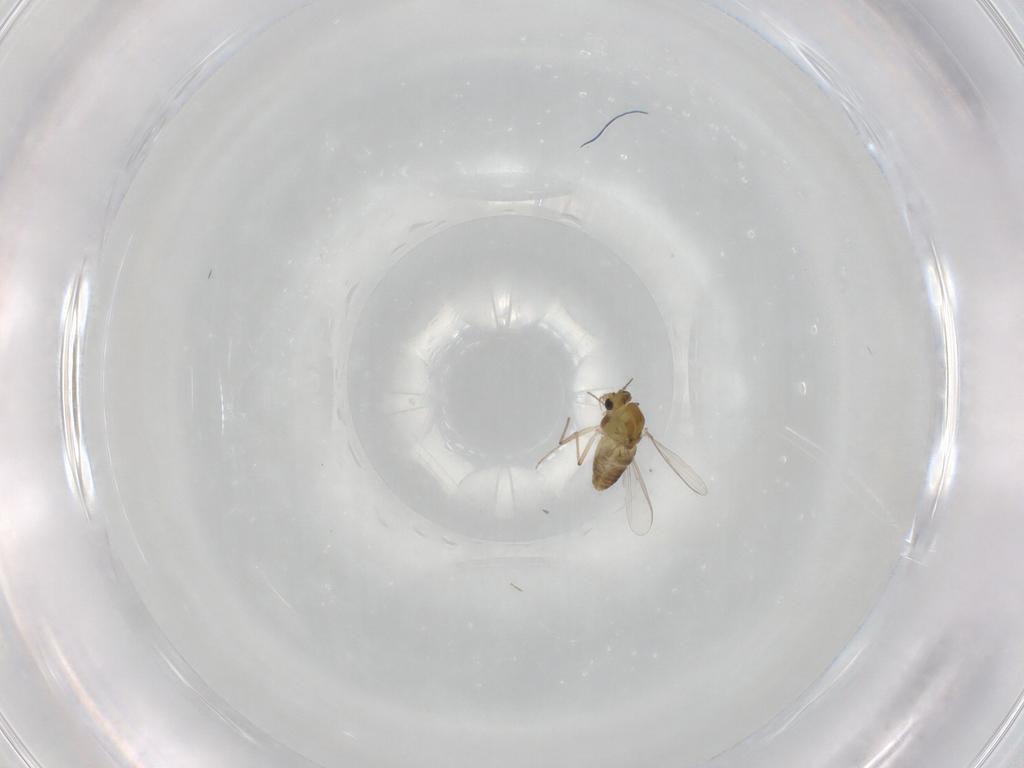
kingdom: Animalia
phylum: Arthropoda
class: Insecta
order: Diptera
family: Chironomidae
